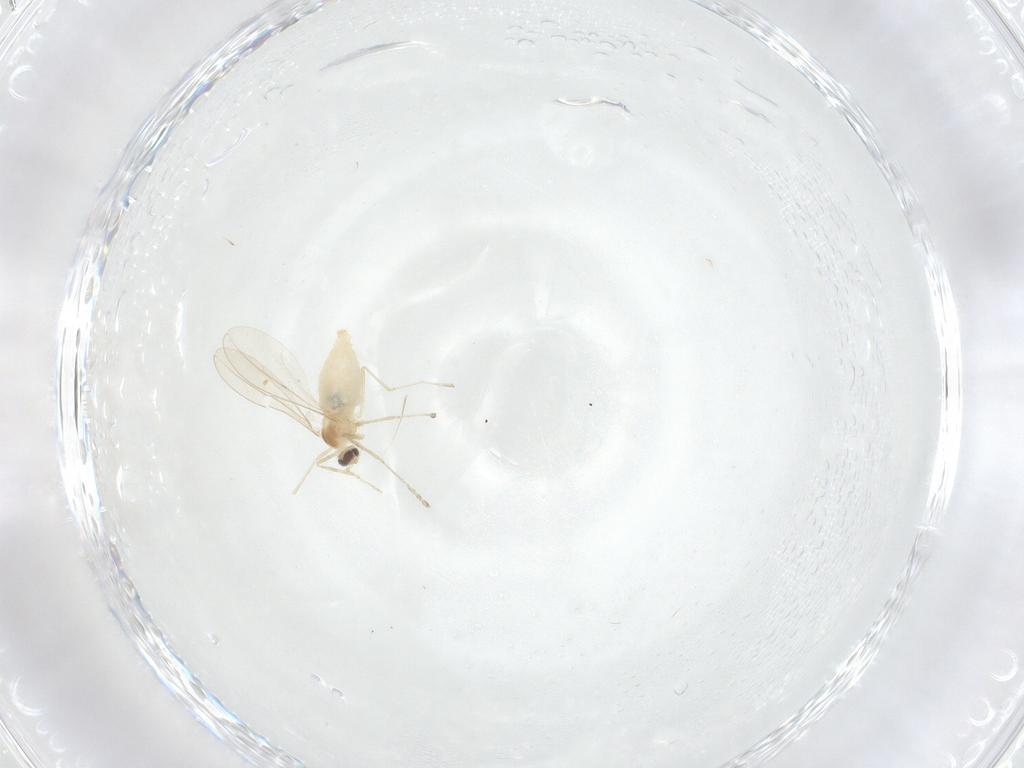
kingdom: Animalia
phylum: Arthropoda
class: Insecta
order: Diptera
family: Cecidomyiidae
